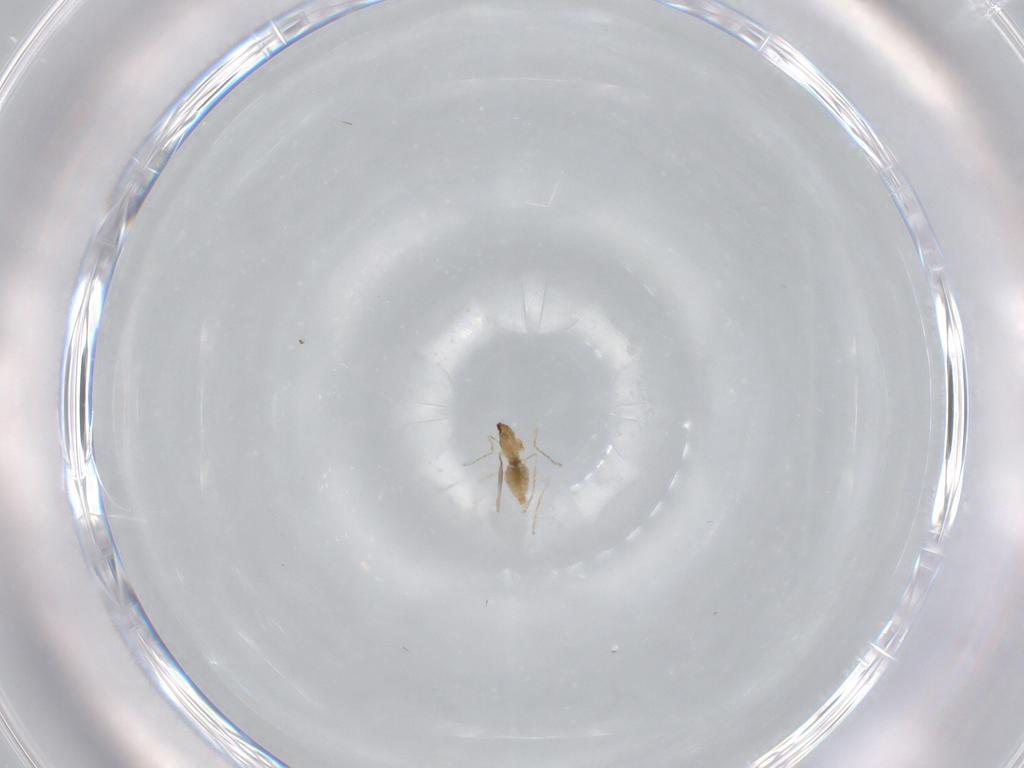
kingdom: Animalia
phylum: Arthropoda
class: Insecta
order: Diptera
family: Cecidomyiidae
